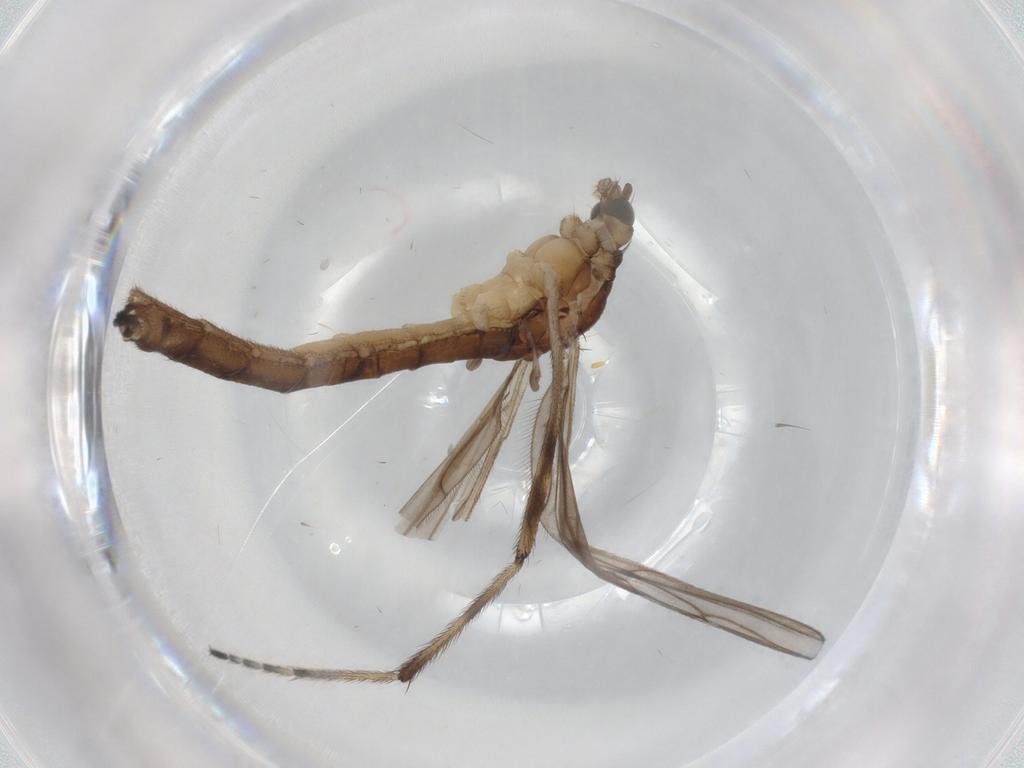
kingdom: Animalia
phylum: Arthropoda
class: Insecta
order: Diptera
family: Limoniidae
